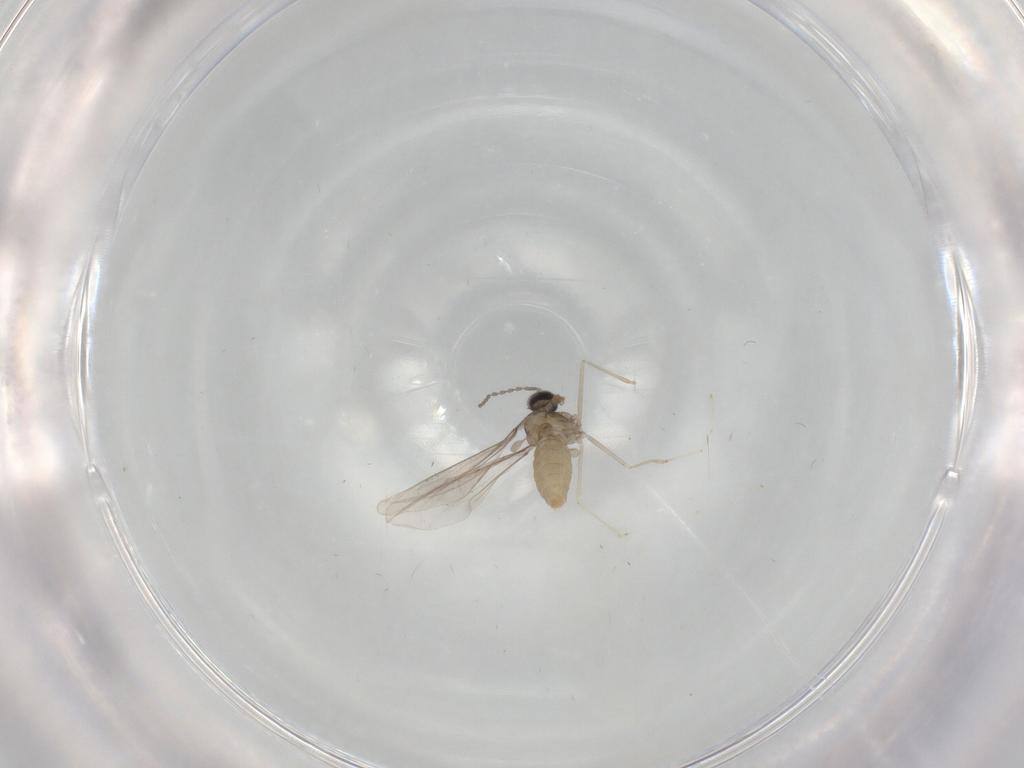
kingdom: Animalia
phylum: Arthropoda
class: Insecta
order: Diptera
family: Cecidomyiidae
